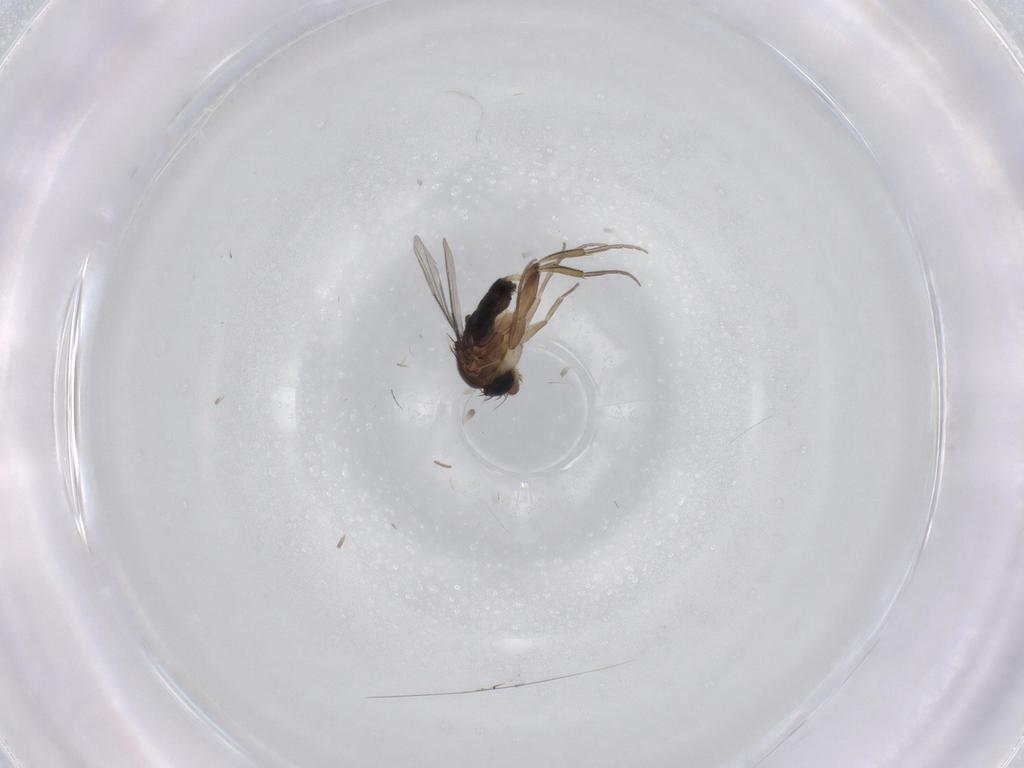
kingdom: Animalia
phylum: Arthropoda
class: Insecta
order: Diptera
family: Phoridae
